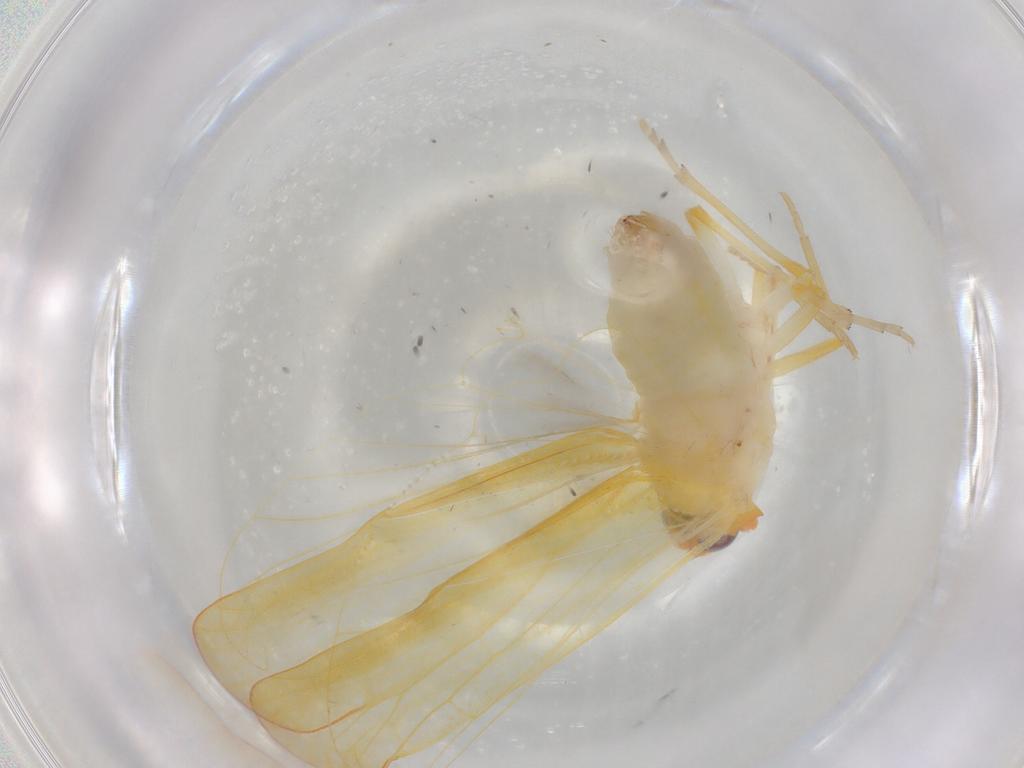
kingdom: Animalia
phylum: Arthropoda
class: Insecta
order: Hemiptera
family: Derbidae
